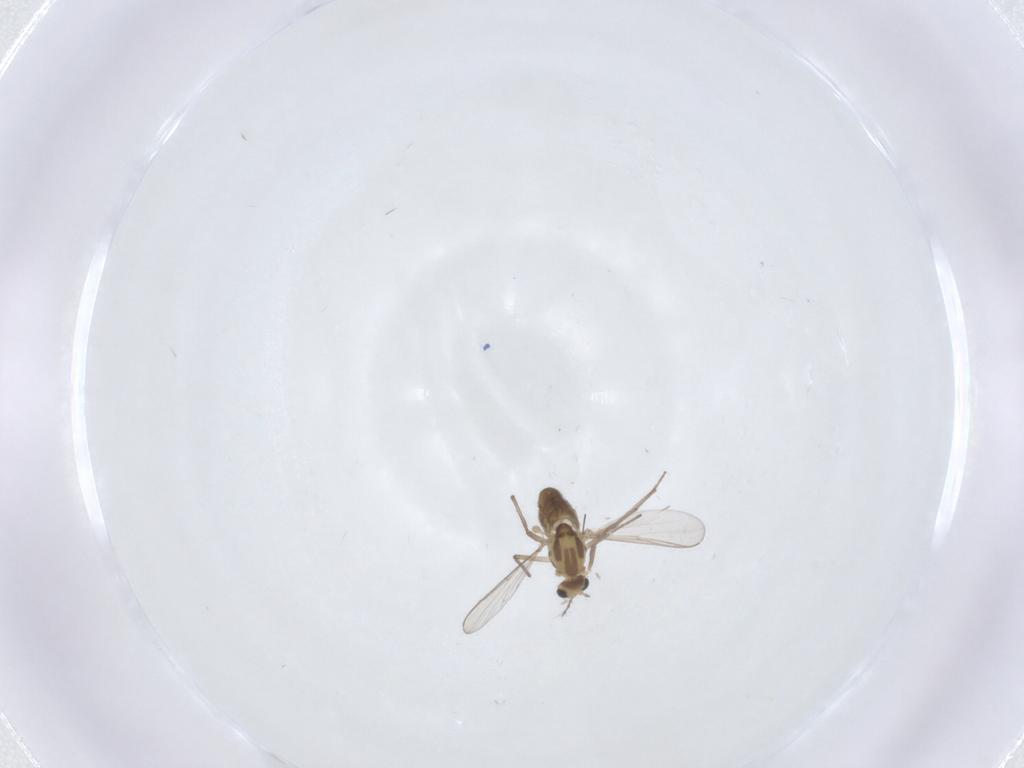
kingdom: Animalia
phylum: Arthropoda
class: Insecta
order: Diptera
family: Chironomidae
